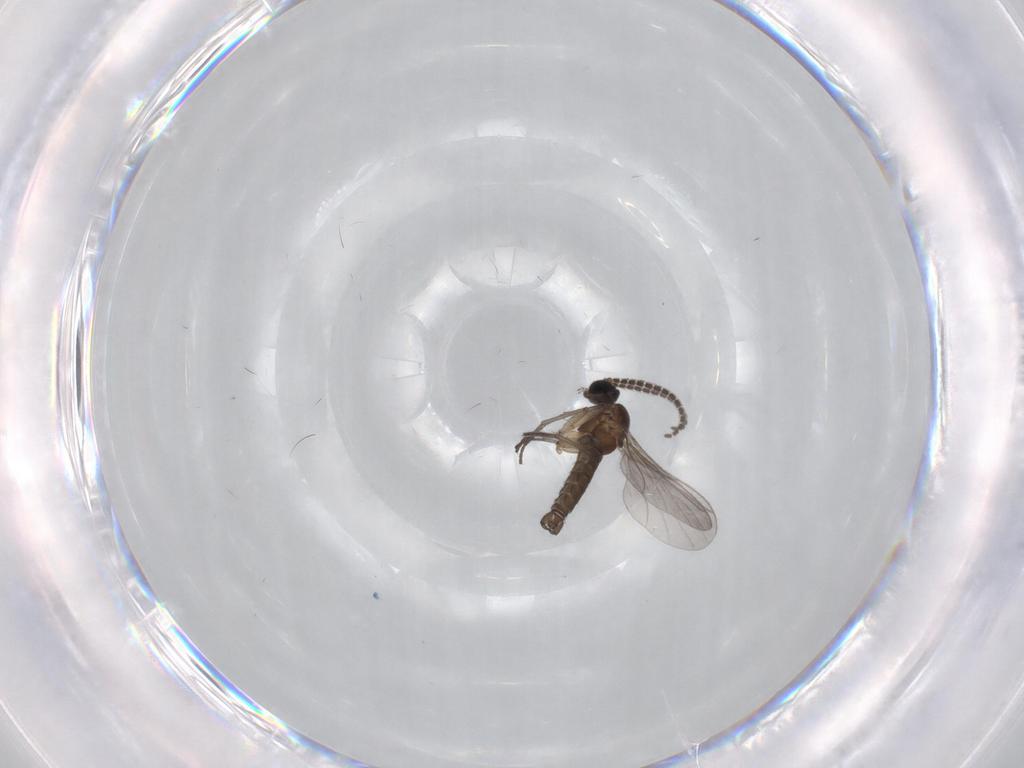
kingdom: Animalia
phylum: Arthropoda
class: Insecta
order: Diptera
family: Sciaridae
